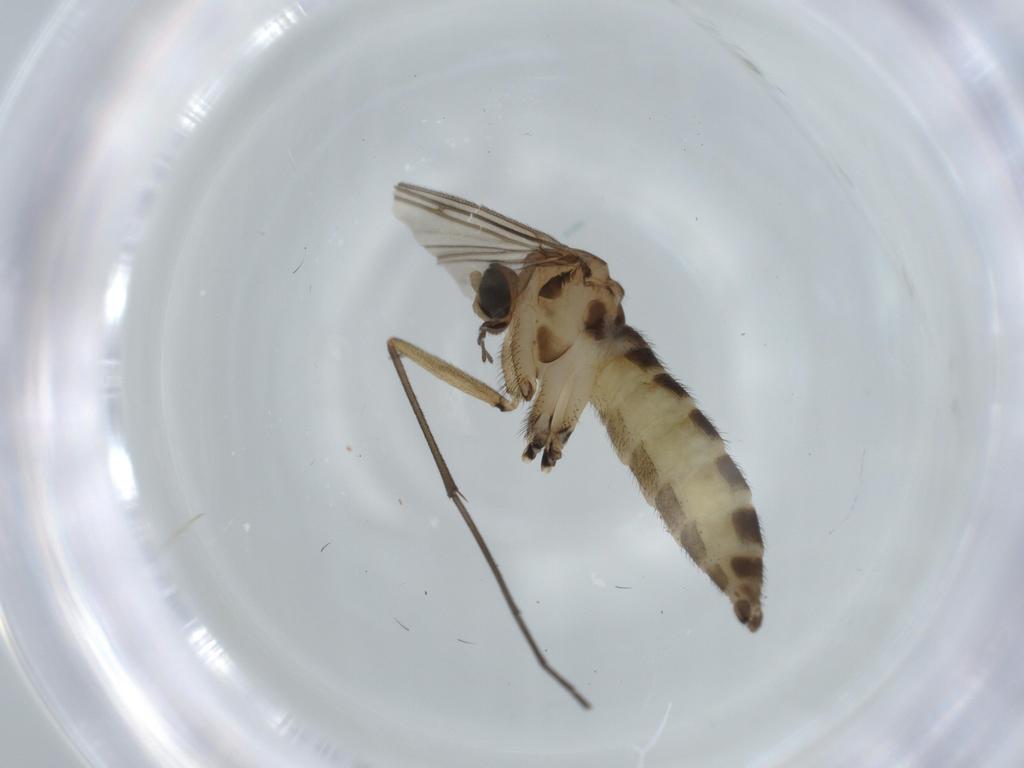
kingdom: Animalia
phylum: Arthropoda
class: Insecta
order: Diptera
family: Sciaridae
